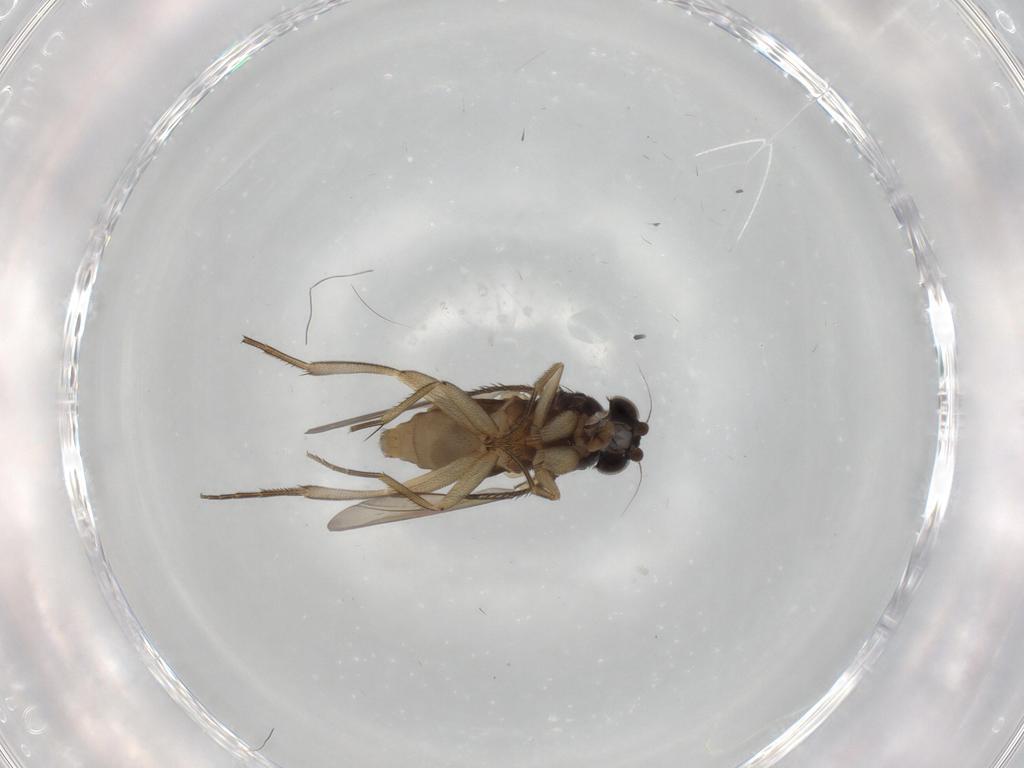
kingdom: Animalia
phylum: Arthropoda
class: Insecta
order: Diptera
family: Phoridae
